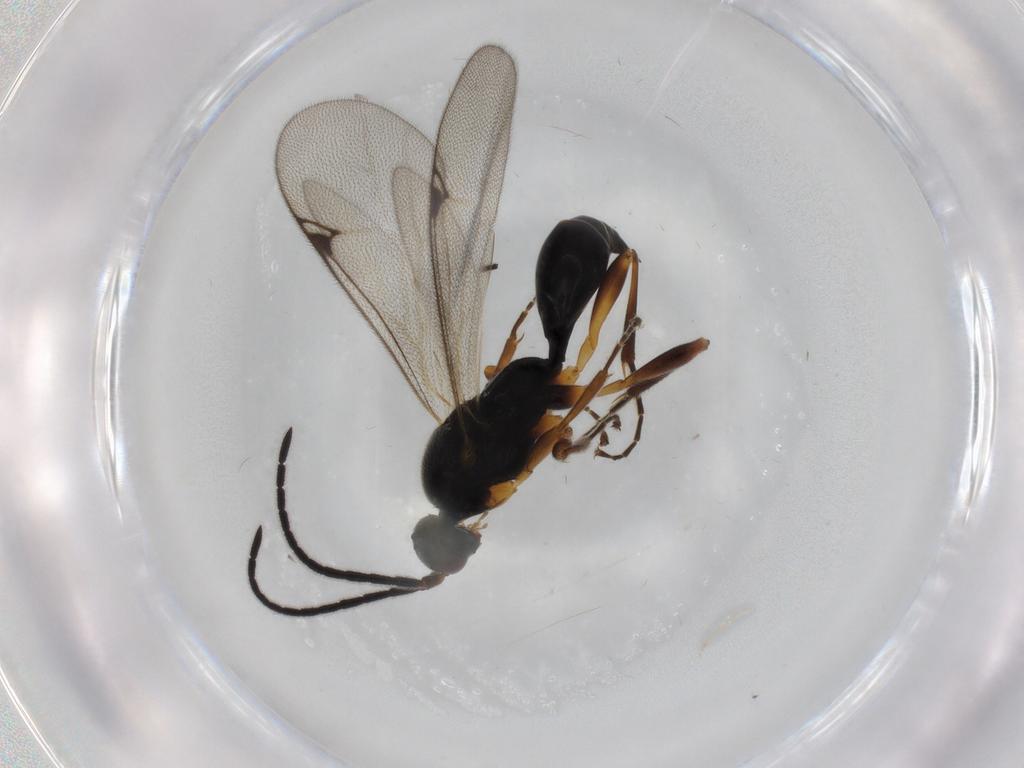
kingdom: Animalia
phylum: Arthropoda
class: Insecta
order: Hymenoptera
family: Proctotrupidae
